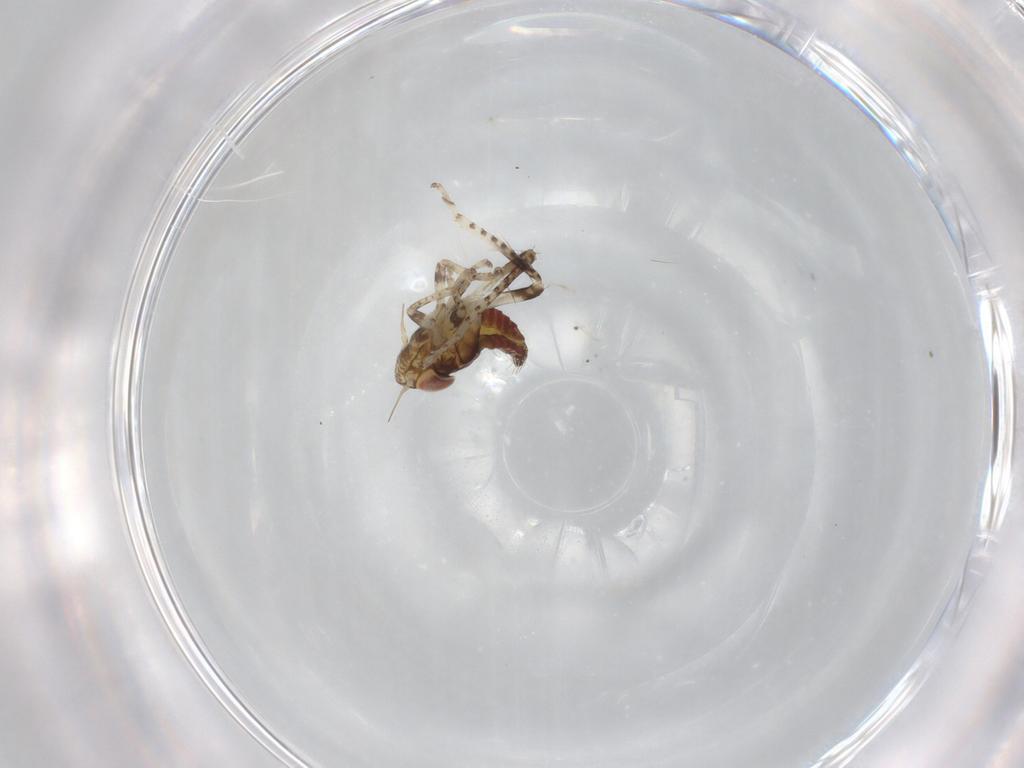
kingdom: Animalia
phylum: Arthropoda
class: Insecta
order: Hemiptera
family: Cicadellidae
